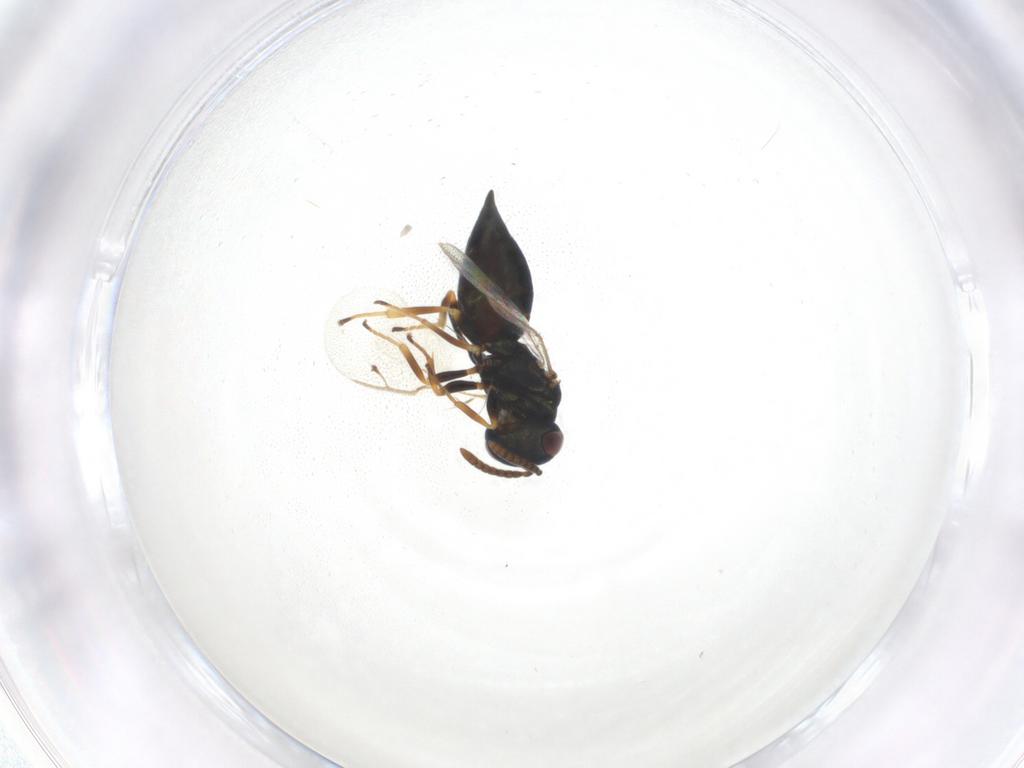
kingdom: Animalia
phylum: Arthropoda
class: Insecta
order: Hymenoptera
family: Pteromalidae
